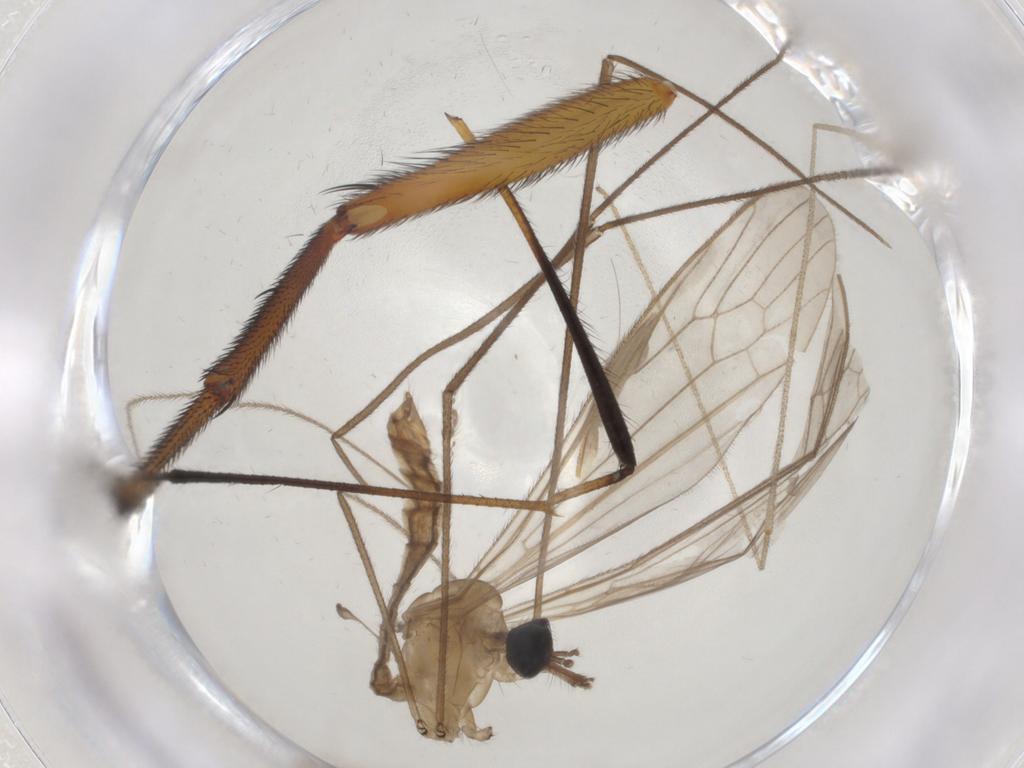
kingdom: Animalia
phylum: Arthropoda
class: Insecta
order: Diptera
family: Limoniidae
